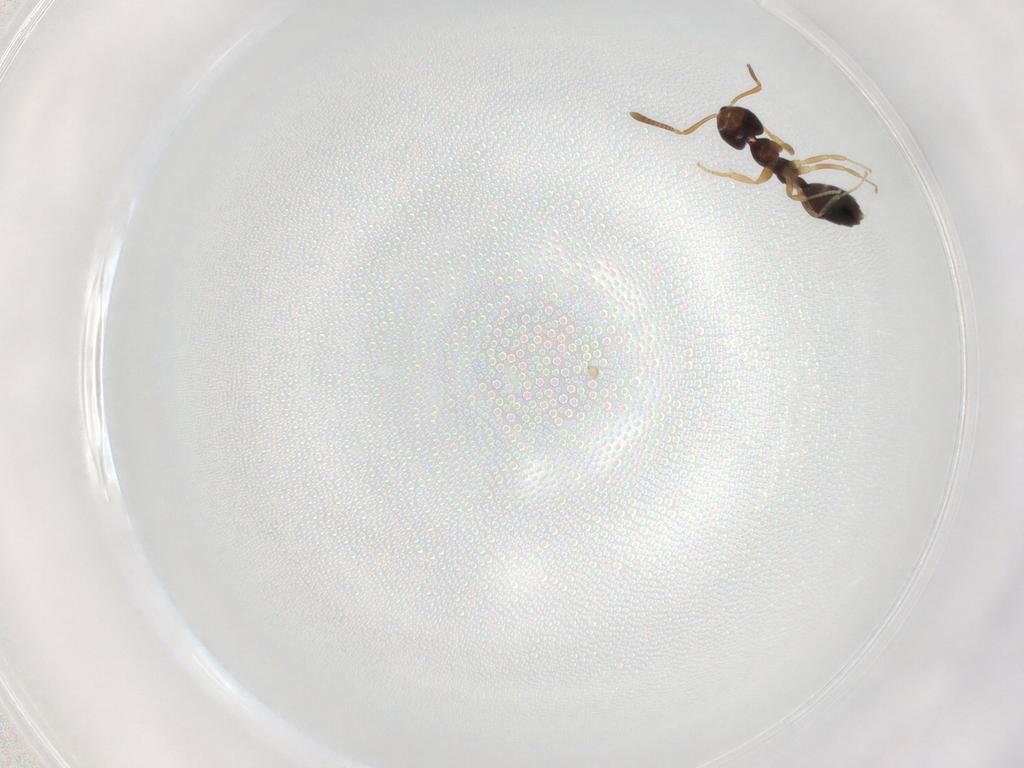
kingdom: Animalia
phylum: Arthropoda
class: Insecta
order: Hymenoptera
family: Formicidae
